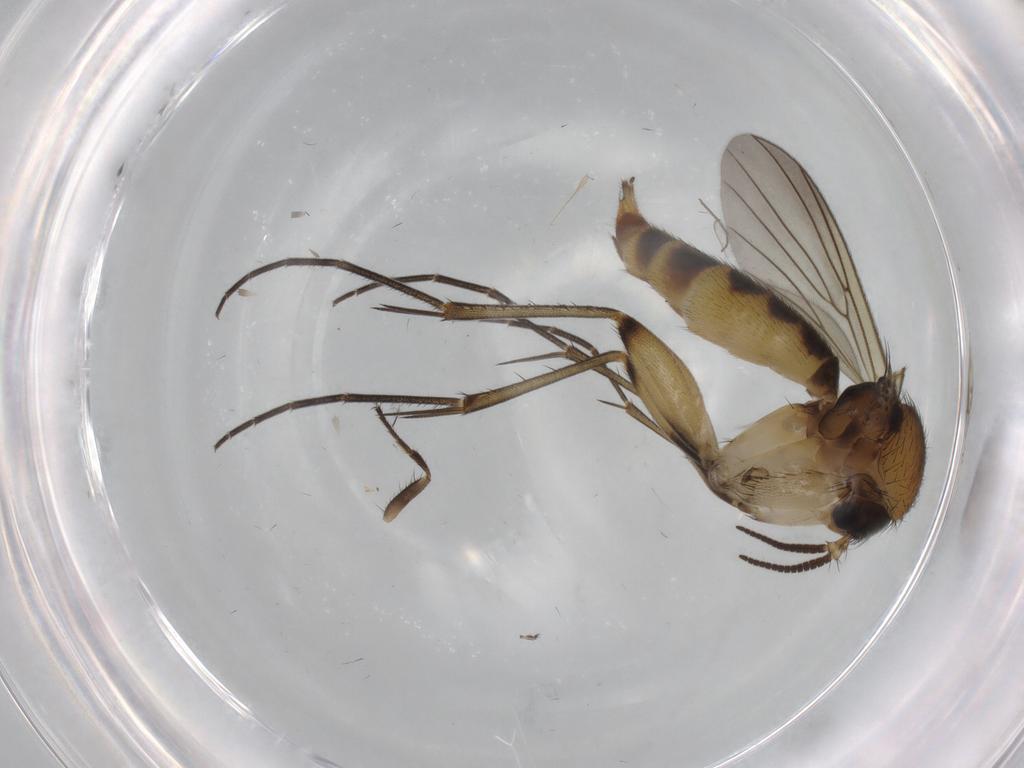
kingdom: Animalia
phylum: Arthropoda
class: Insecta
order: Diptera
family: Mycetophilidae
